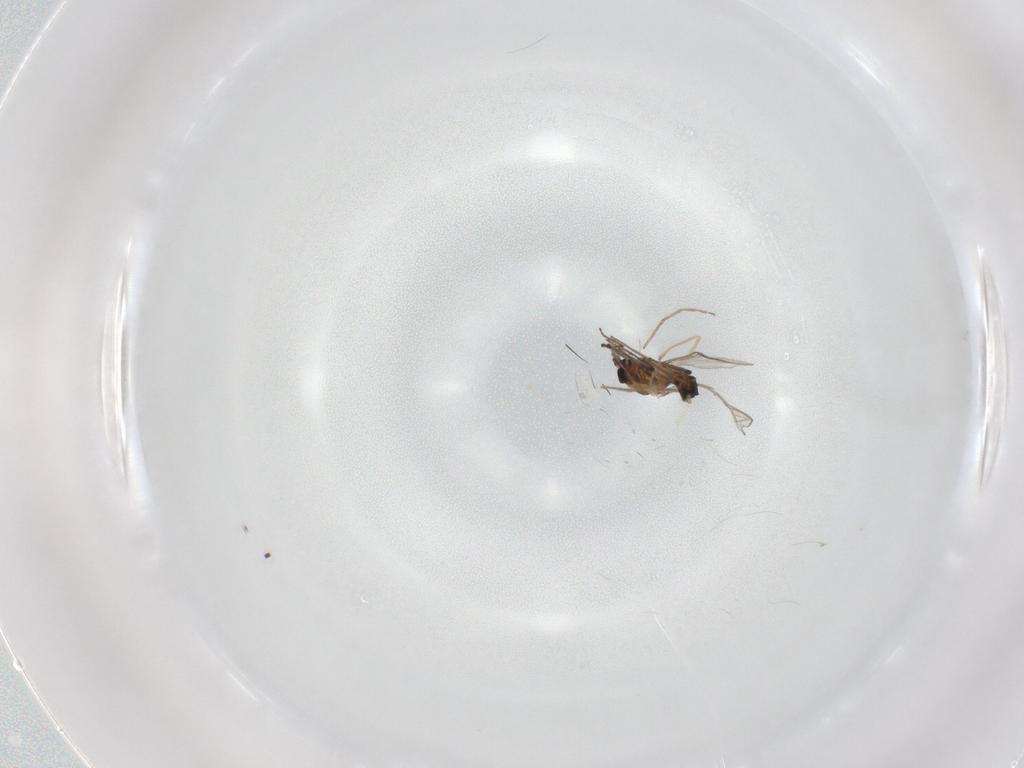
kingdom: Animalia
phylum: Arthropoda
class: Insecta
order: Diptera
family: Chironomidae
